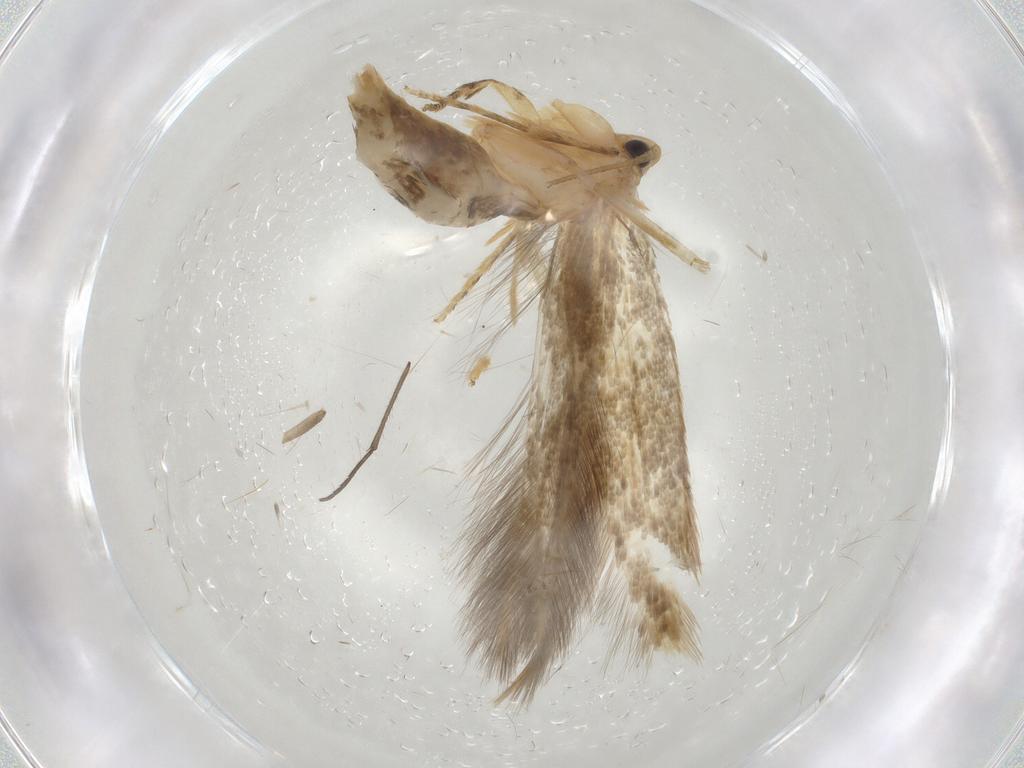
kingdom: Animalia
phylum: Arthropoda
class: Insecta
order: Lepidoptera
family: Tineidae
